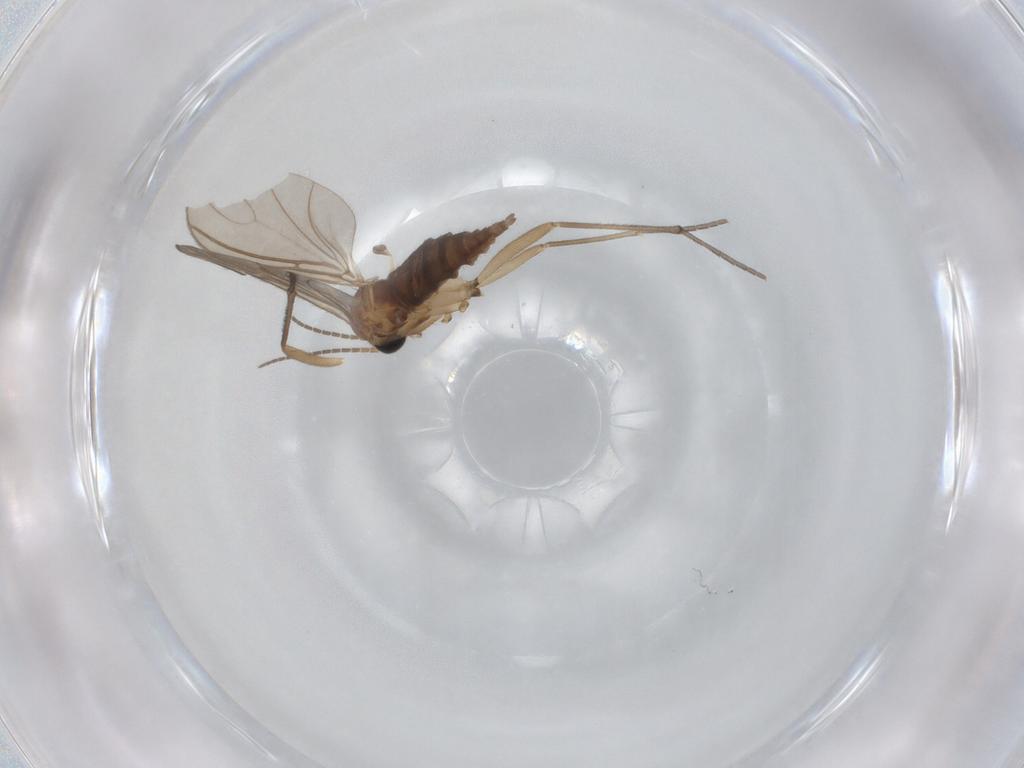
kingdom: Animalia
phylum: Arthropoda
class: Insecta
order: Diptera
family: Sciaridae
